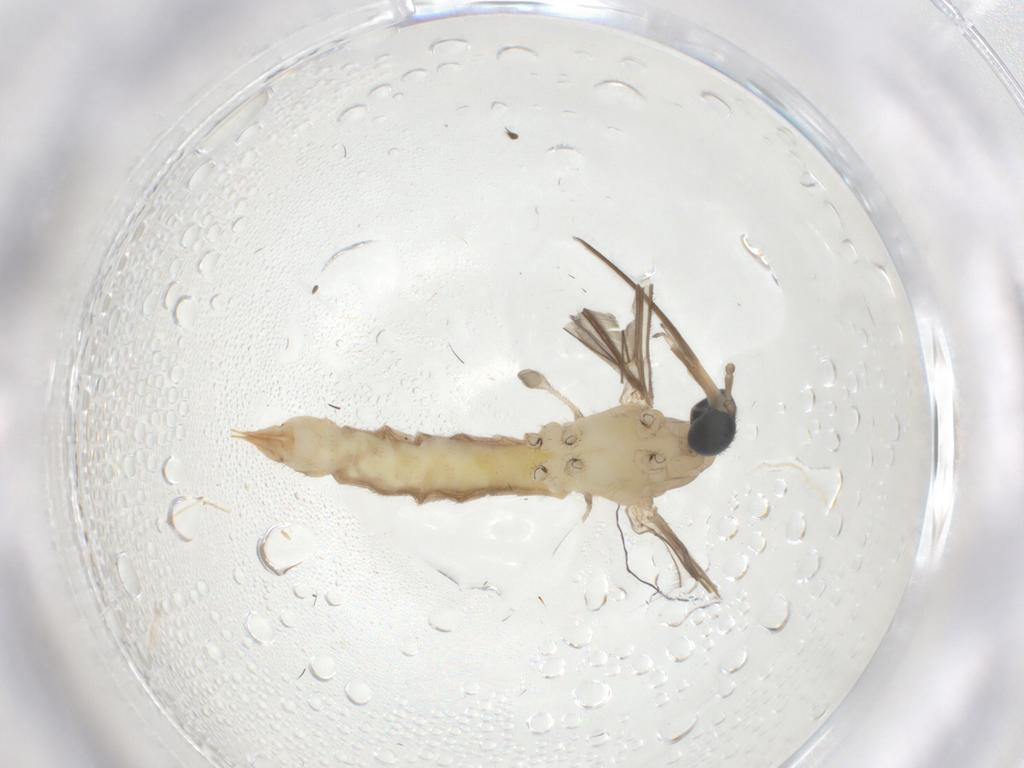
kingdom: Animalia
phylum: Arthropoda
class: Insecta
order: Diptera
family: Limoniidae
